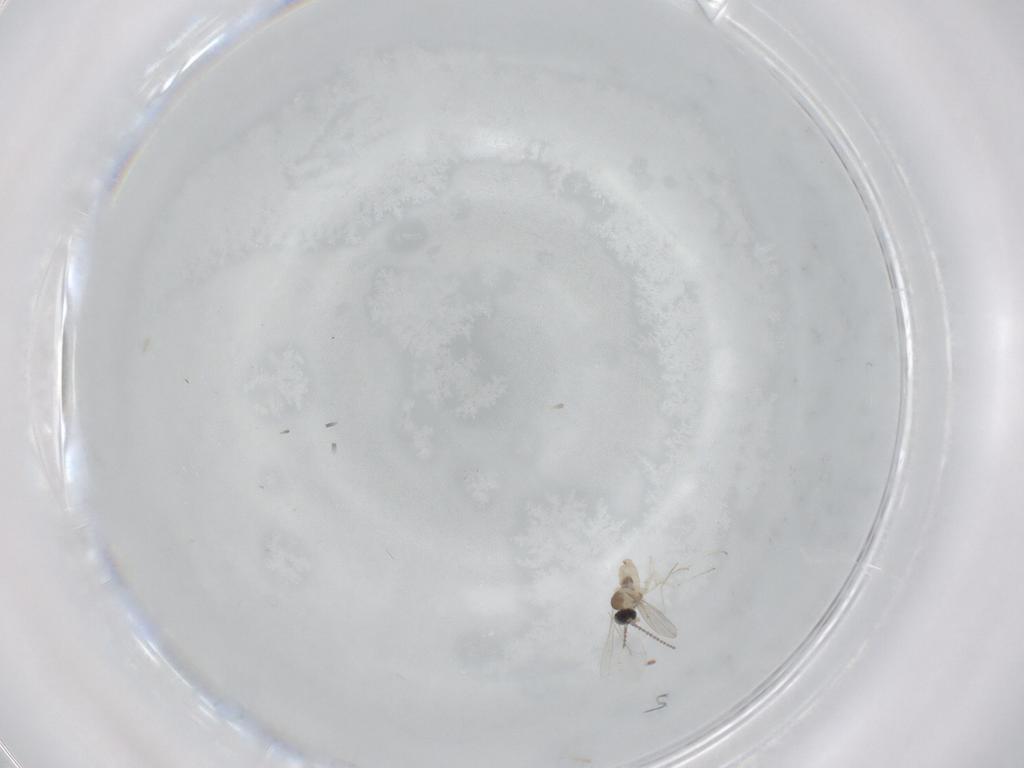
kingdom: Animalia
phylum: Arthropoda
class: Insecta
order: Diptera
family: Cecidomyiidae
